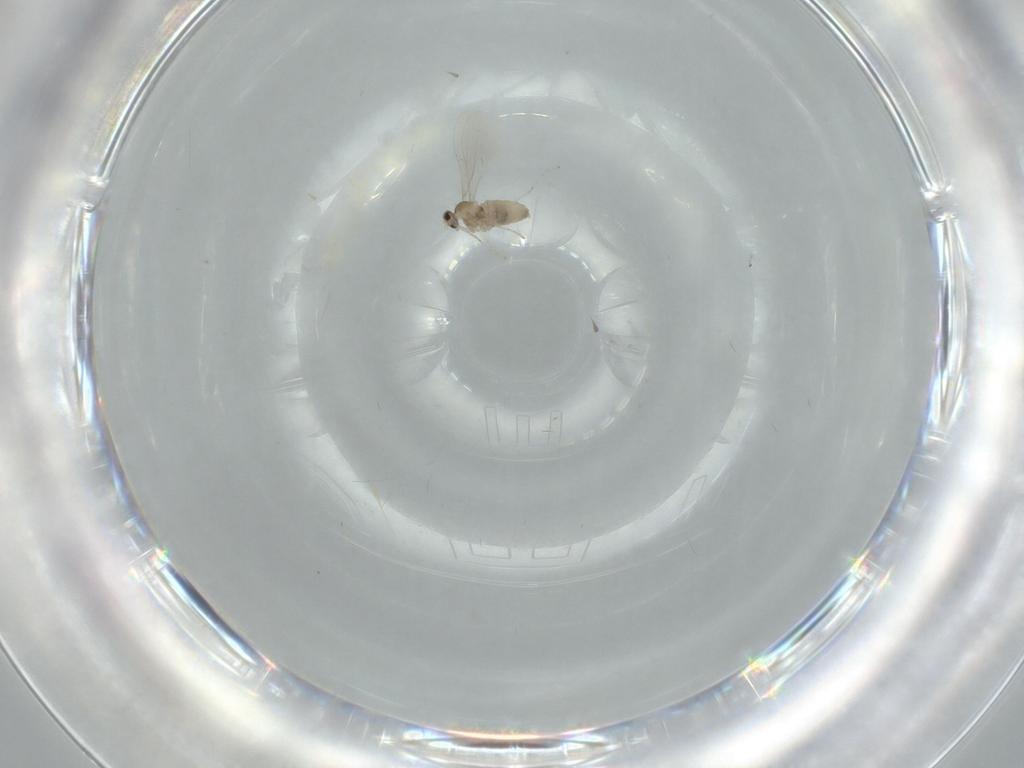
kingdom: Animalia
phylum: Arthropoda
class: Insecta
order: Diptera
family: Cecidomyiidae
